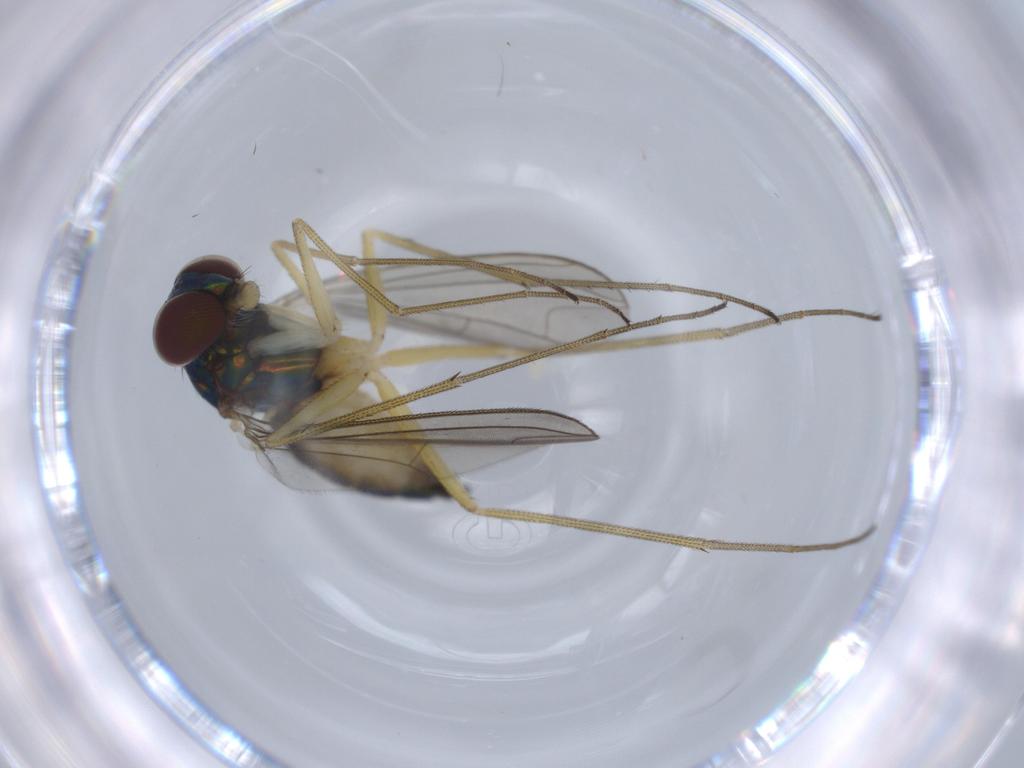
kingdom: Animalia
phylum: Arthropoda
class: Insecta
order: Diptera
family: Dolichopodidae
